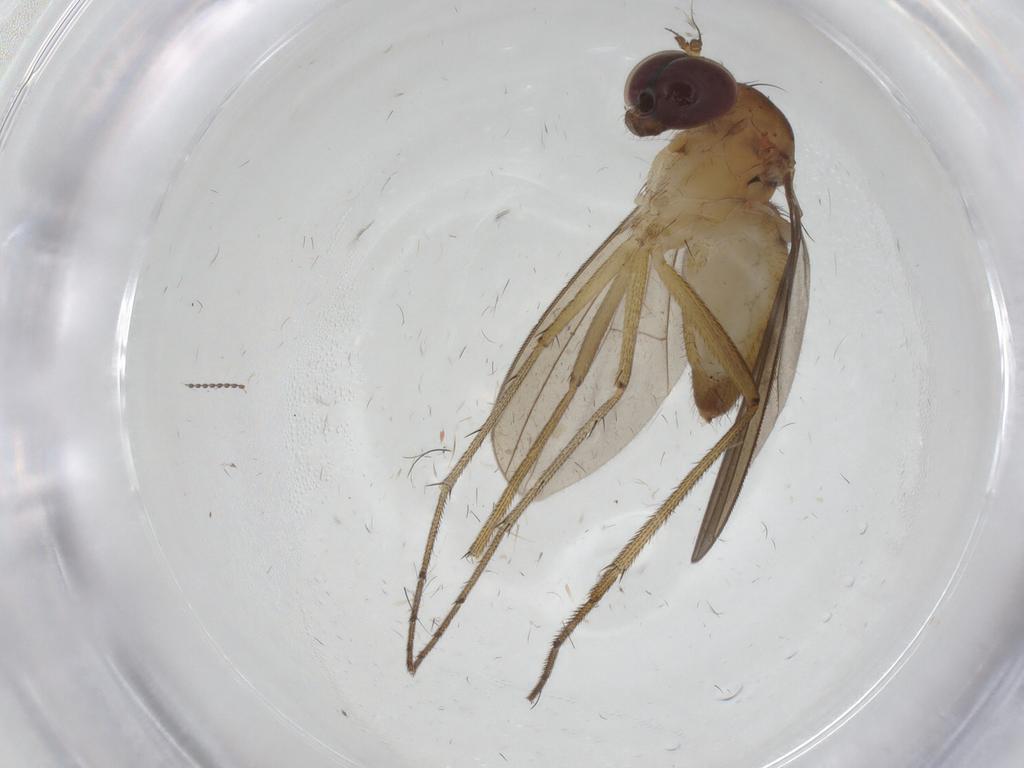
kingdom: Animalia
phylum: Arthropoda
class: Insecta
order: Diptera
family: Dolichopodidae
